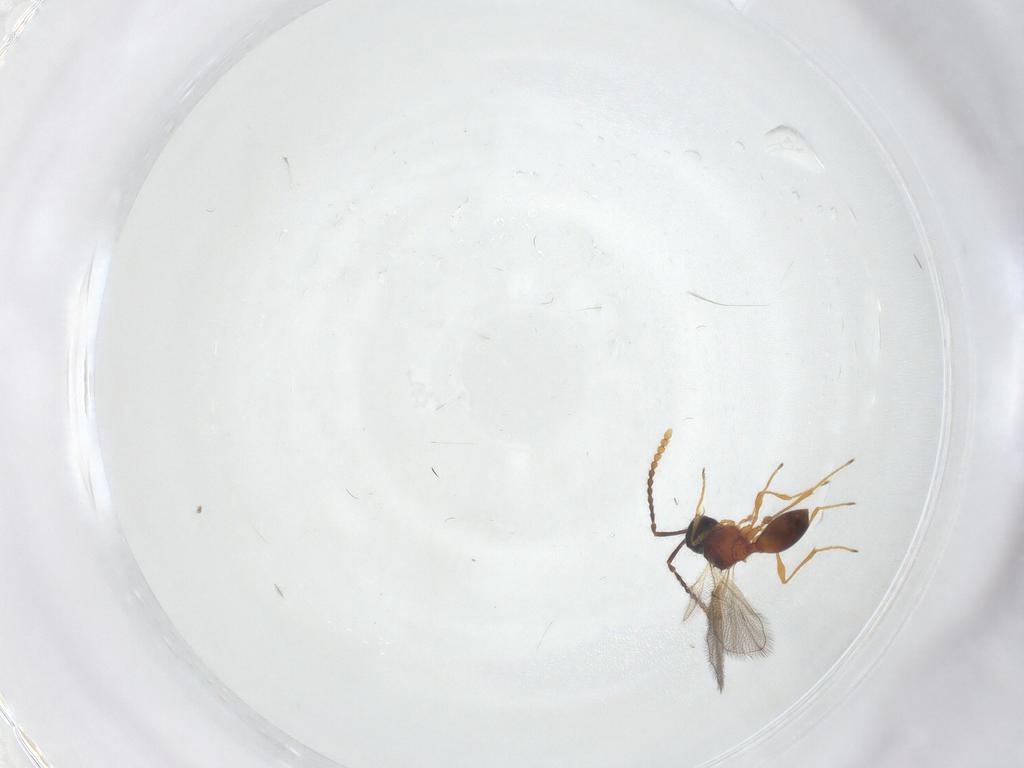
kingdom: Animalia
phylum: Arthropoda
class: Insecta
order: Hymenoptera
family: Diapriidae
